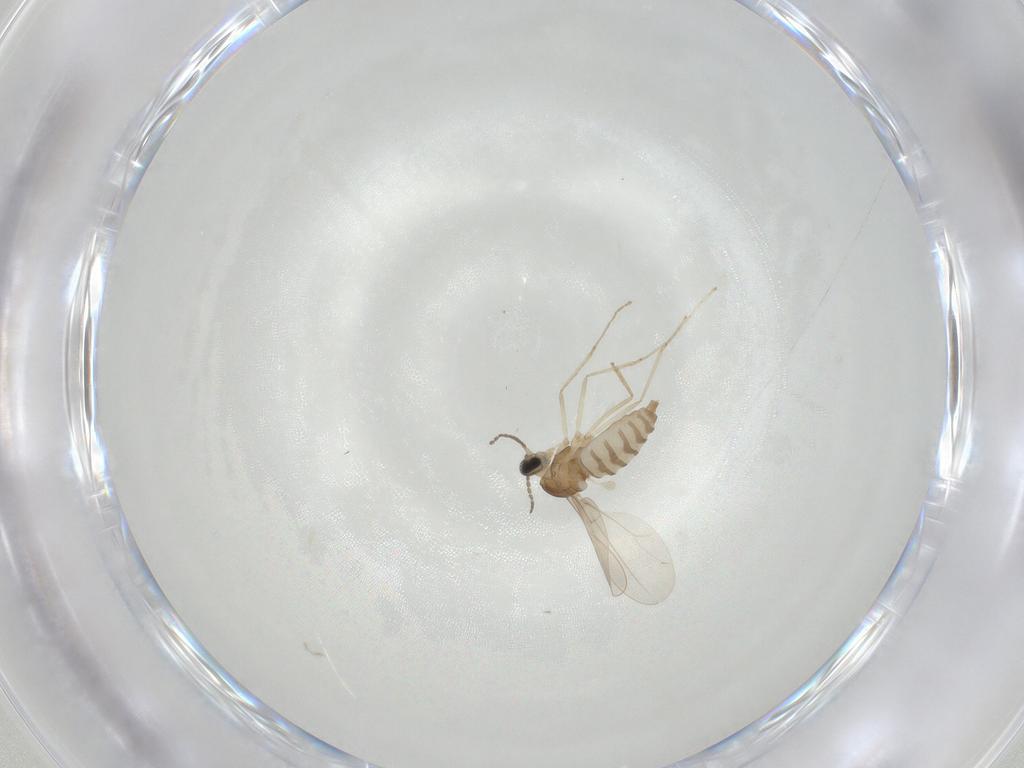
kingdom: Animalia
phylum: Arthropoda
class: Insecta
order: Diptera
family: Cecidomyiidae
